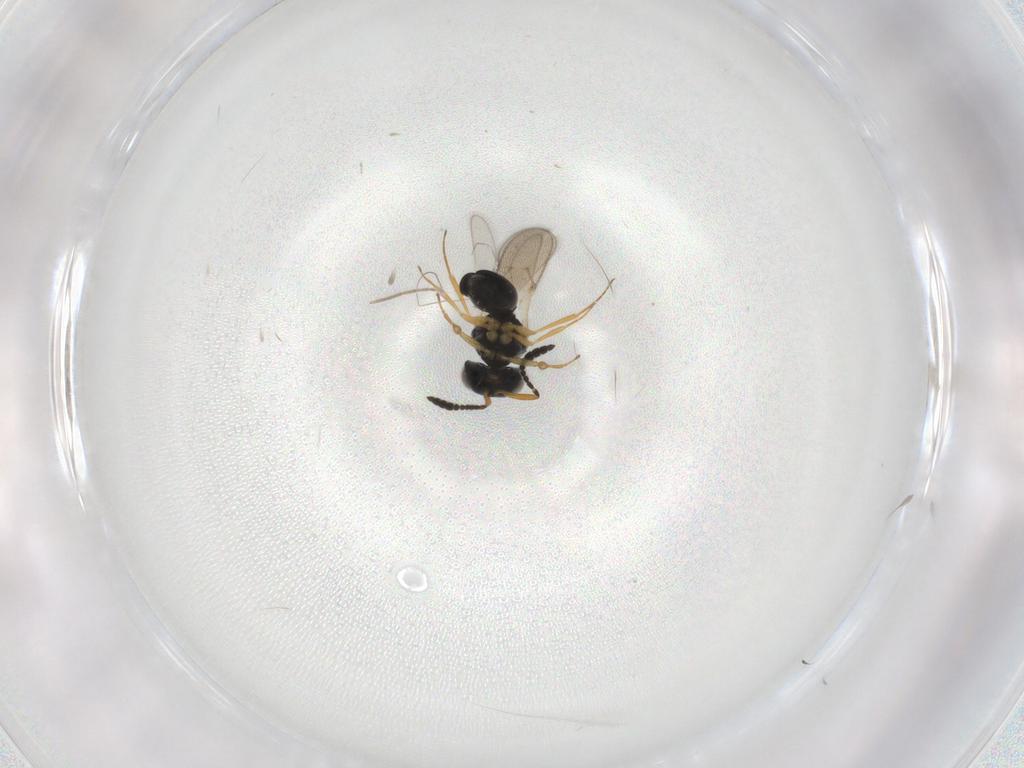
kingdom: Animalia
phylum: Arthropoda
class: Insecta
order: Hymenoptera
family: Scelionidae
